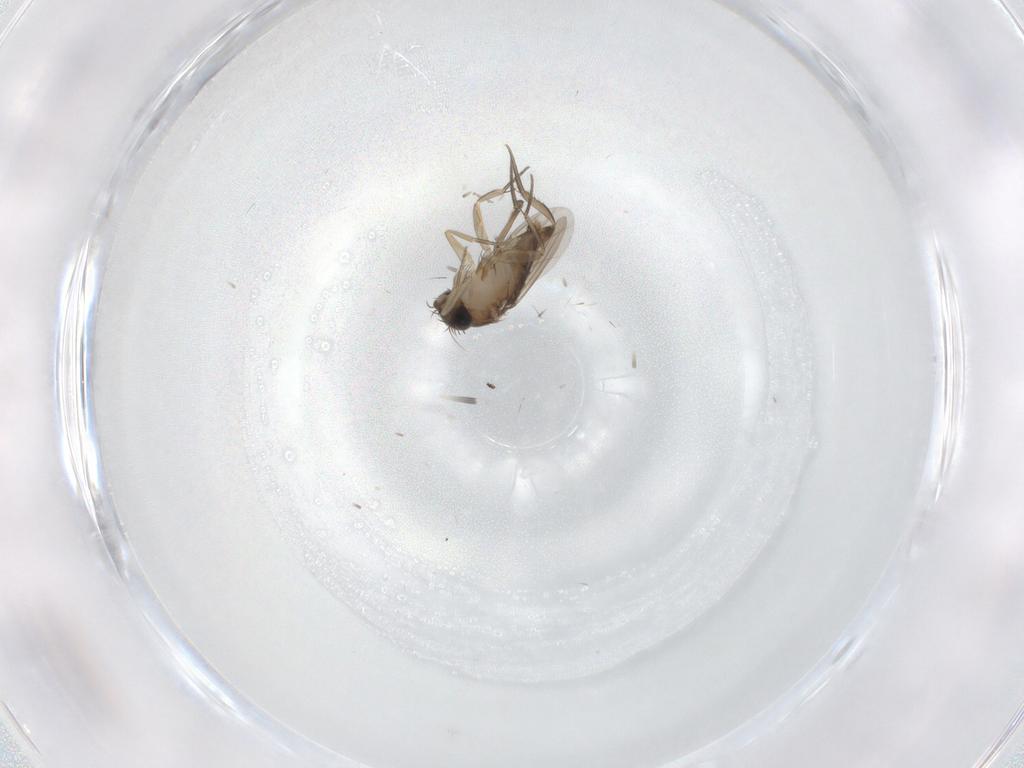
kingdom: Animalia
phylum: Arthropoda
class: Insecta
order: Diptera
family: Phoridae
